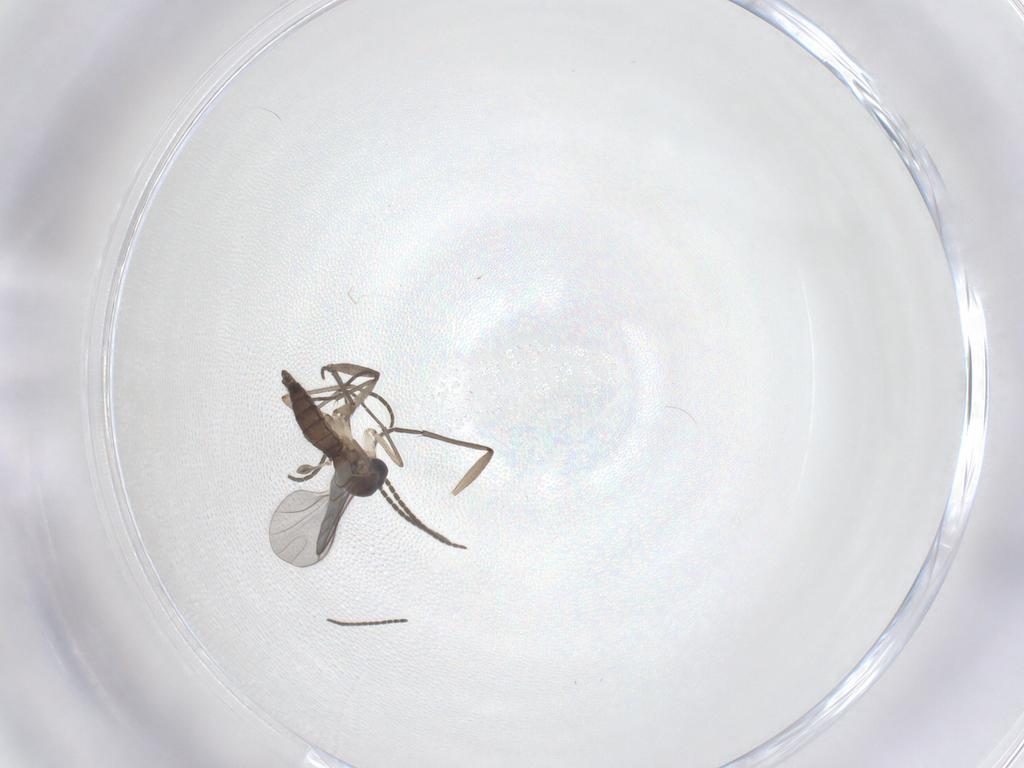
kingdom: Animalia
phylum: Arthropoda
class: Insecta
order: Diptera
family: Sciaridae
